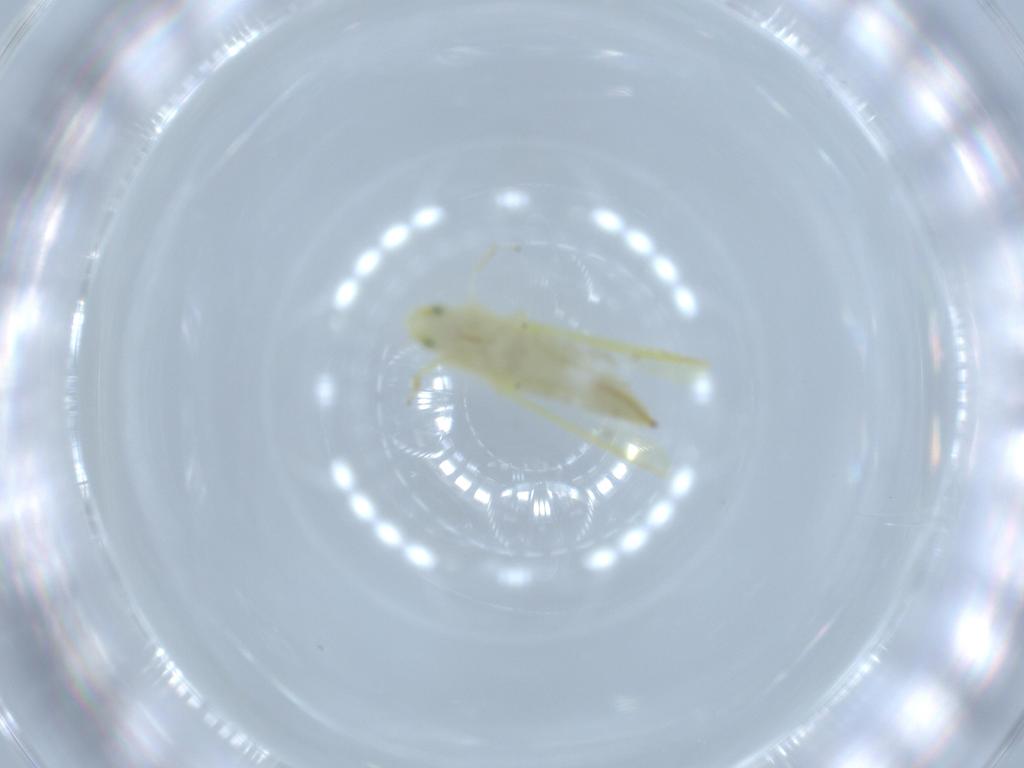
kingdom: Animalia
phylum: Arthropoda
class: Insecta
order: Hemiptera
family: Cicadellidae
